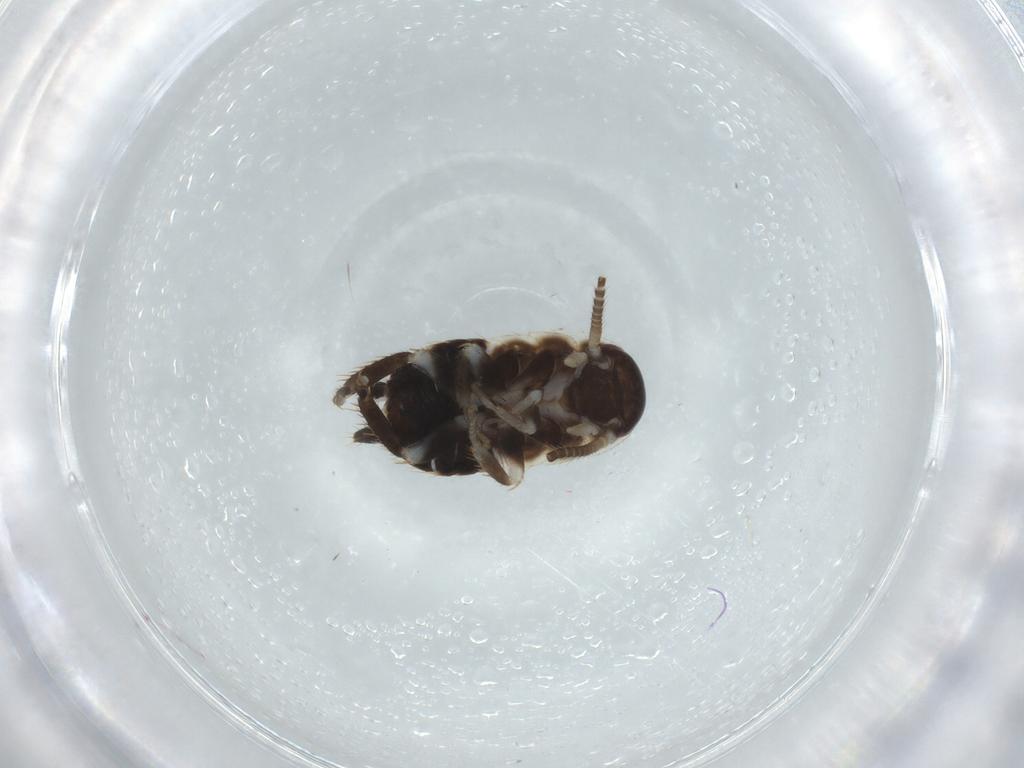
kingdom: Animalia
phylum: Arthropoda
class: Insecta
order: Blattodea
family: Ectobiidae
